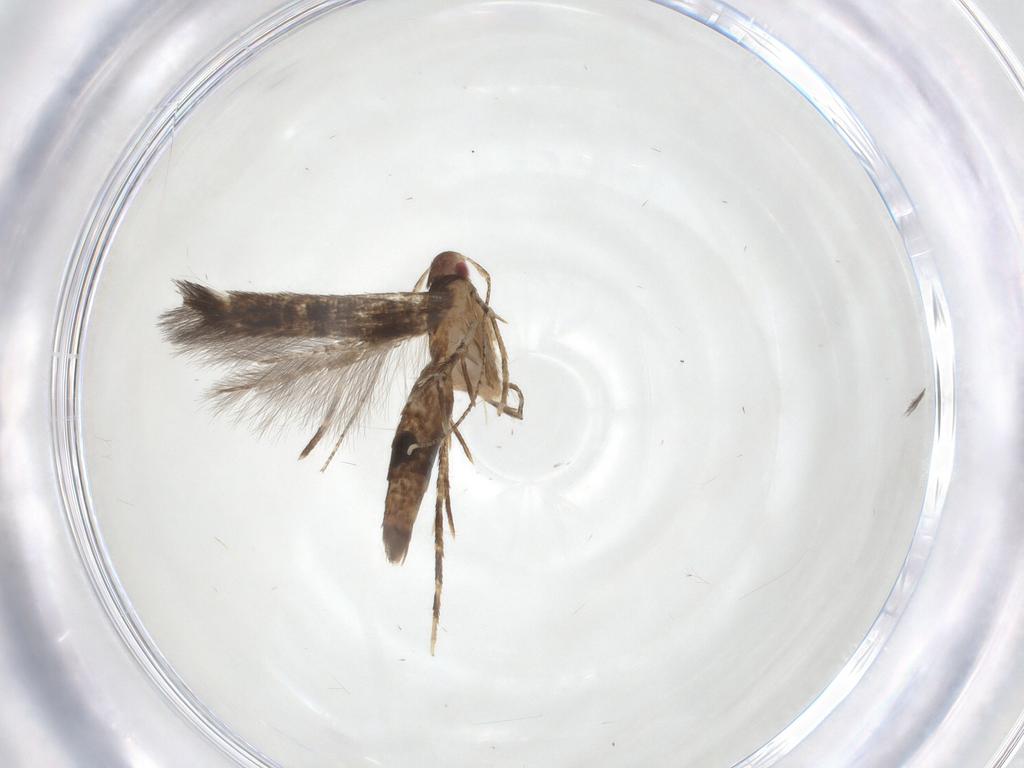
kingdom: Animalia
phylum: Arthropoda
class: Insecta
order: Lepidoptera
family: Cosmopterigidae
